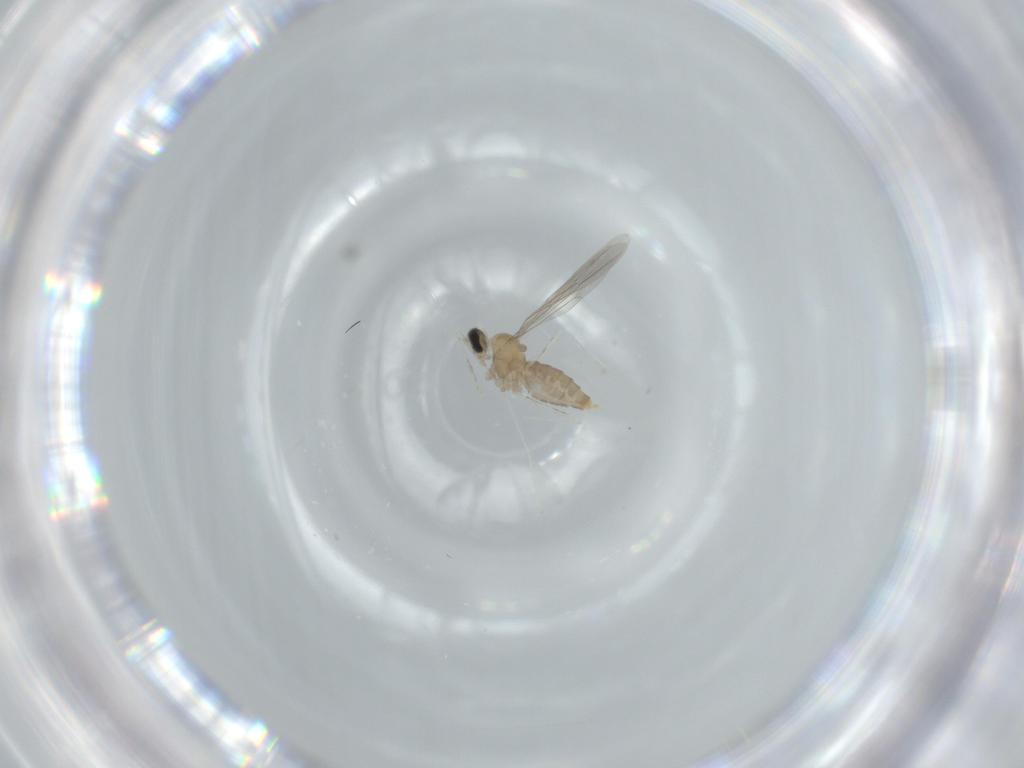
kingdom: Animalia
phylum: Arthropoda
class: Insecta
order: Diptera
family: Cecidomyiidae
